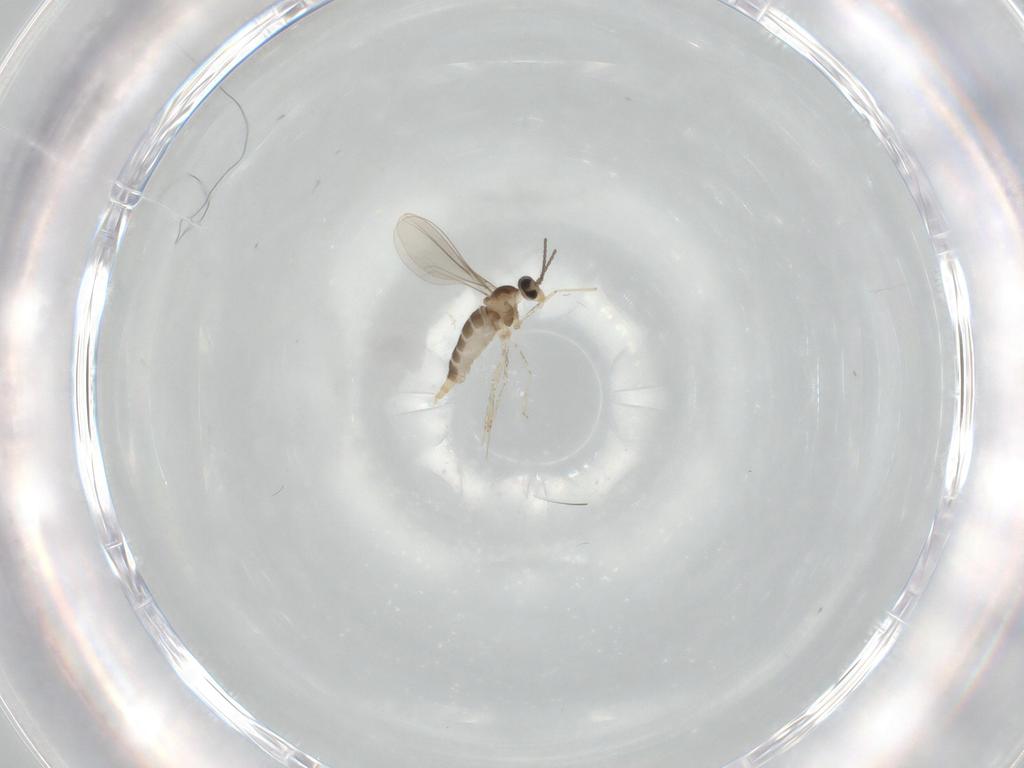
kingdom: Animalia
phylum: Arthropoda
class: Insecta
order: Diptera
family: Cecidomyiidae
